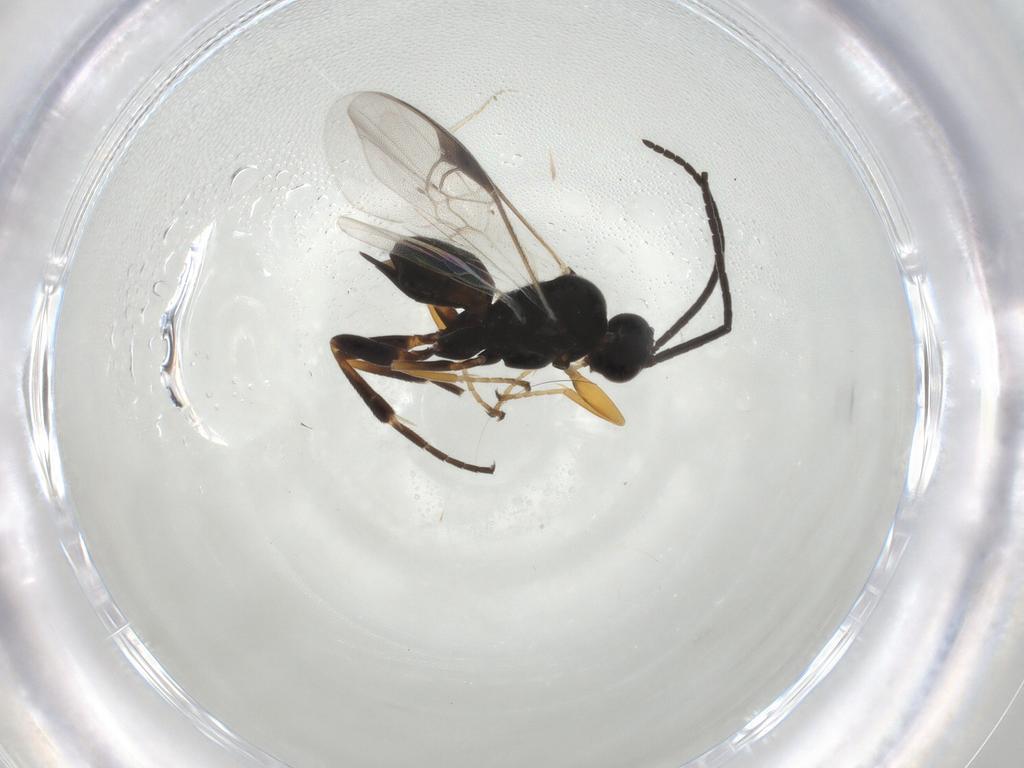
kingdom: Animalia
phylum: Arthropoda
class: Insecta
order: Hymenoptera
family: Braconidae
